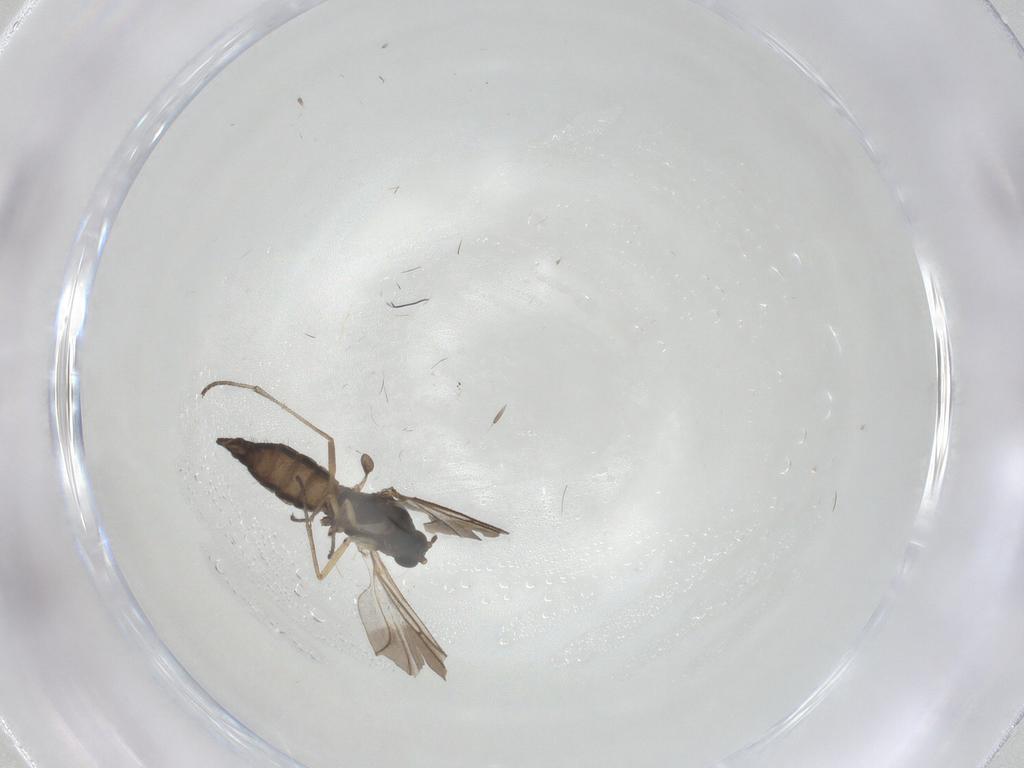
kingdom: Animalia
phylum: Arthropoda
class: Insecta
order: Diptera
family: Sciaridae
